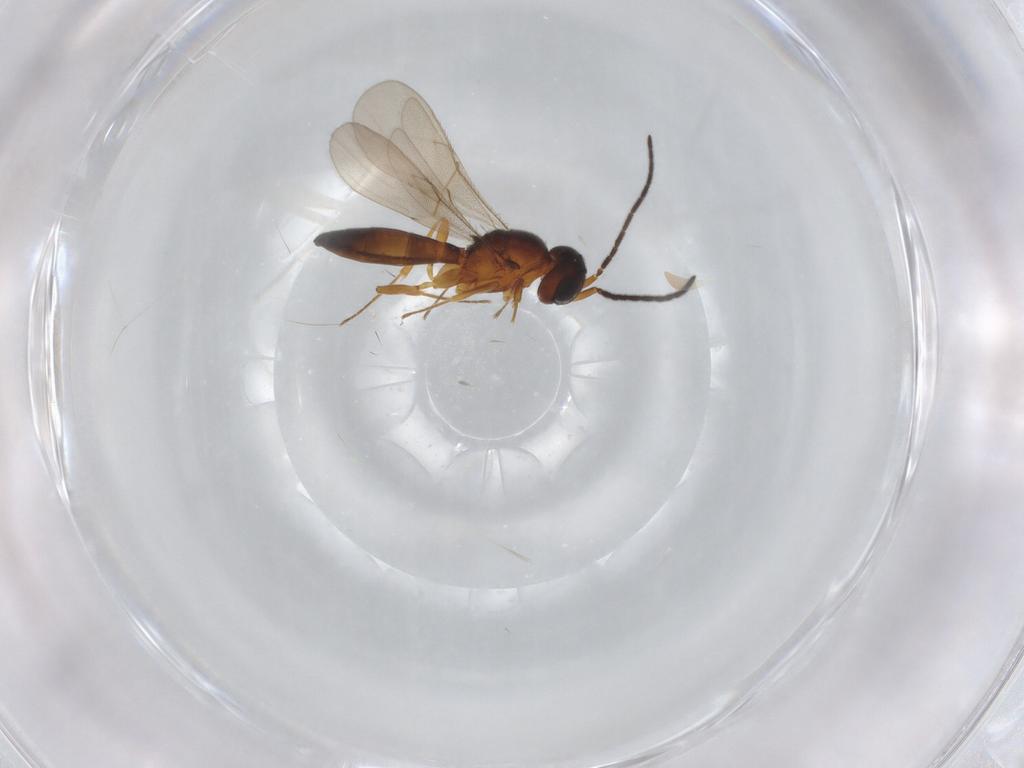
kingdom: Animalia
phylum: Arthropoda
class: Insecta
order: Hymenoptera
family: Scelionidae
